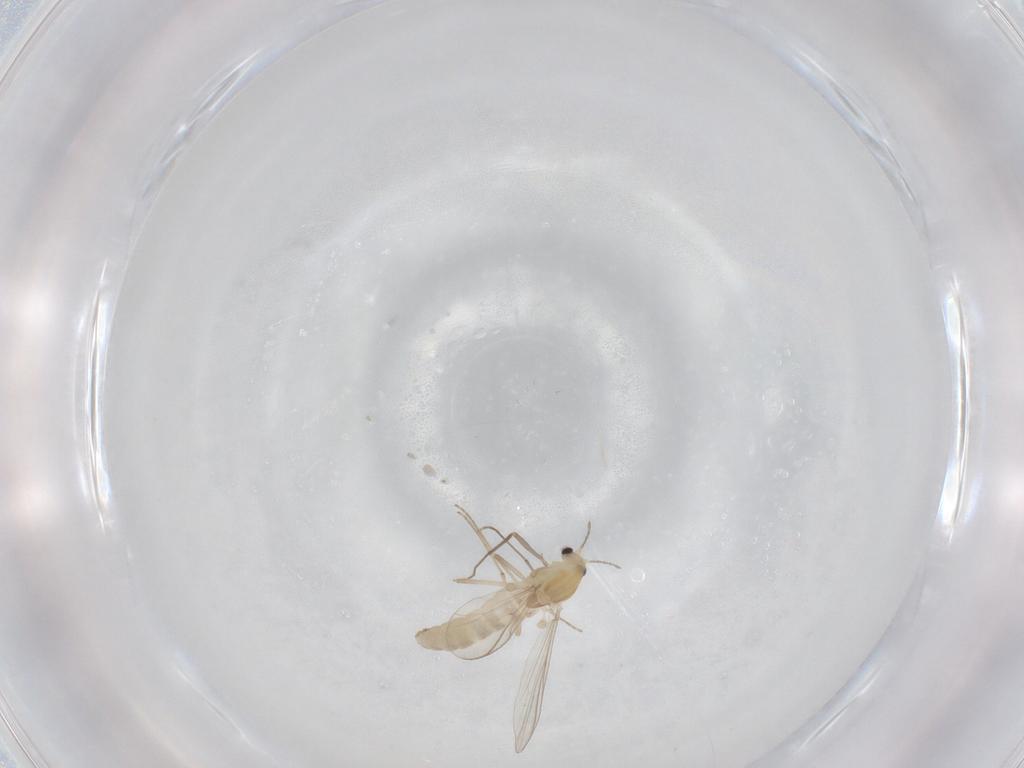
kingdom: Animalia
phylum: Arthropoda
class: Insecta
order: Diptera
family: Chironomidae
